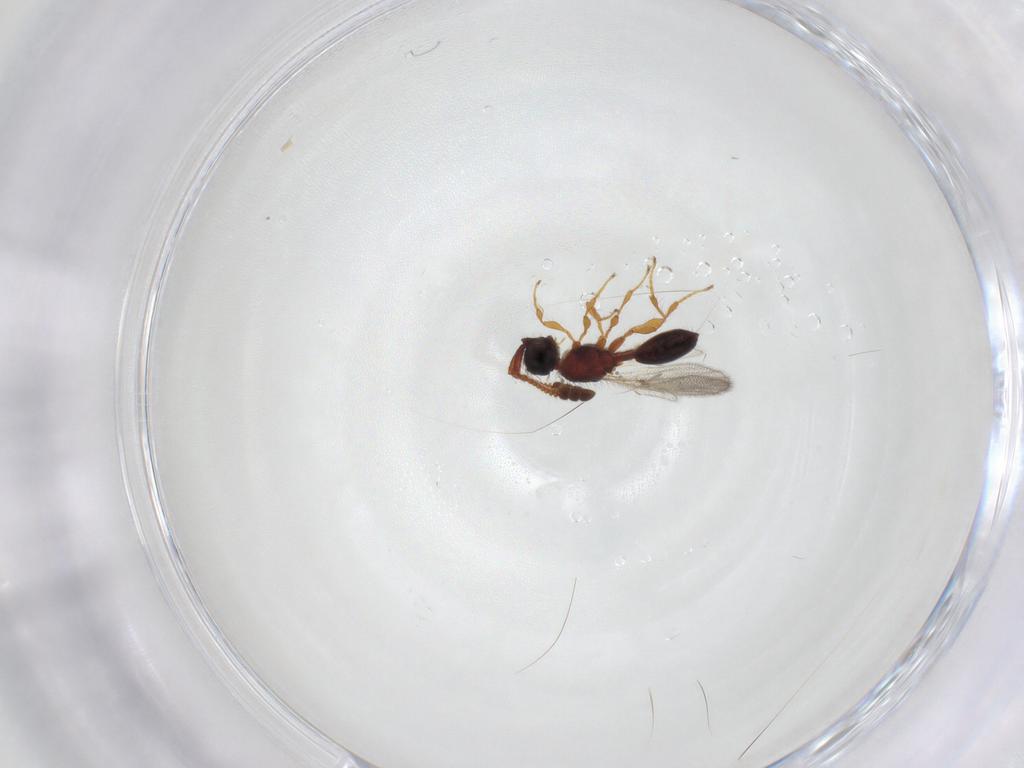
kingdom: Animalia
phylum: Arthropoda
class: Insecta
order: Hymenoptera
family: Diapriidae
